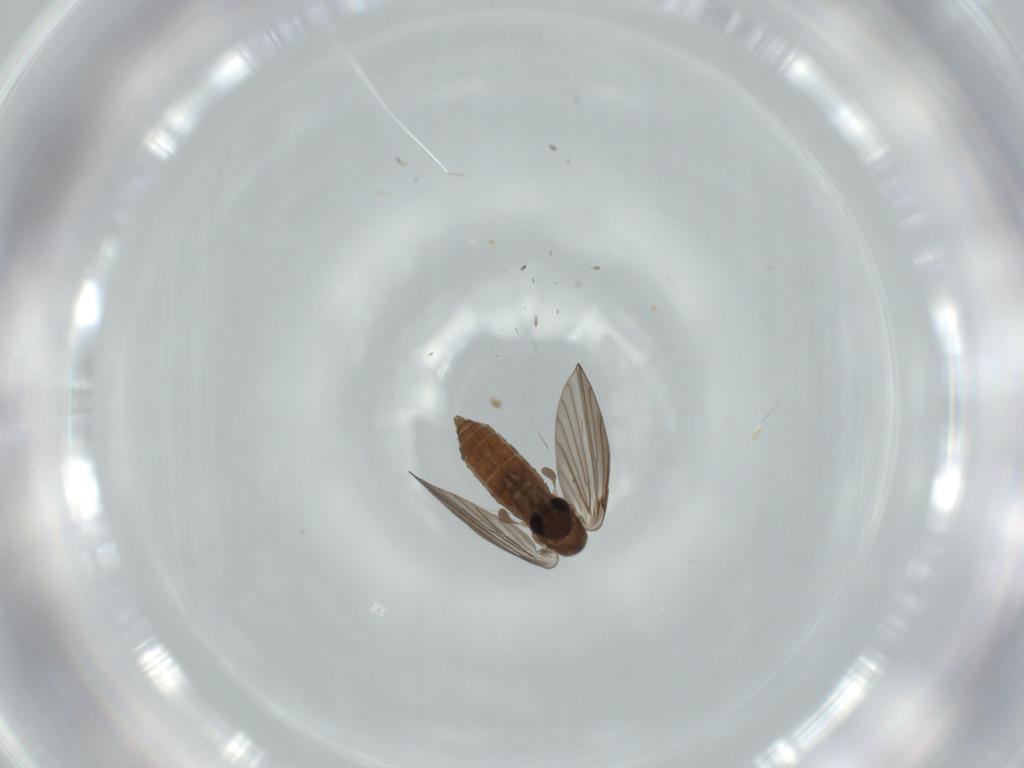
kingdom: Animalia
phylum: Arthropoda
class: Insecta
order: Diptera
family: Psychodidae
